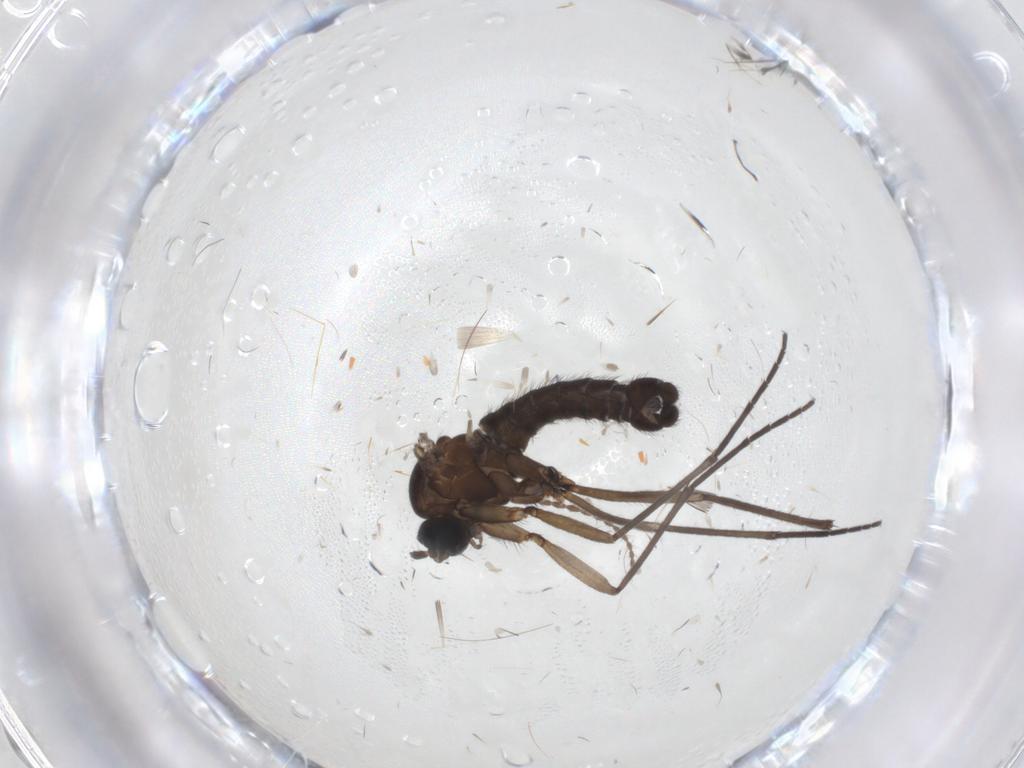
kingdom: Animalia
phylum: Arthropoda
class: Insecta
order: Diptera
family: Sciaridae
